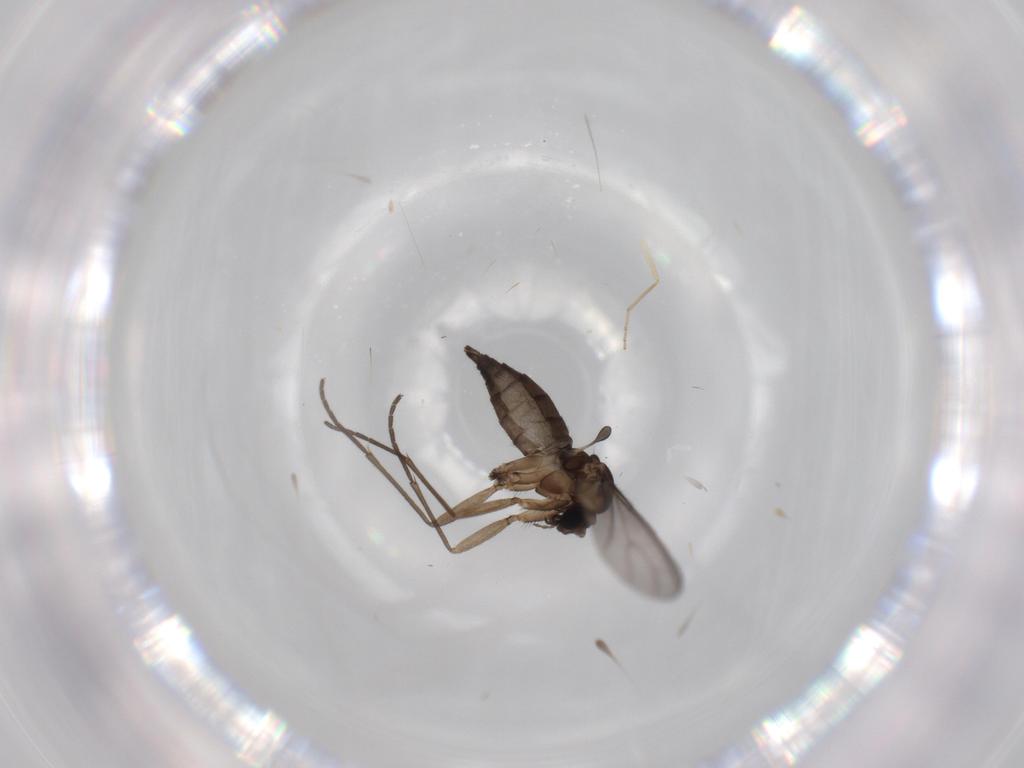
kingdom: Animalia
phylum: Arthropoda
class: Insecta
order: Diptera
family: Sciaridae
